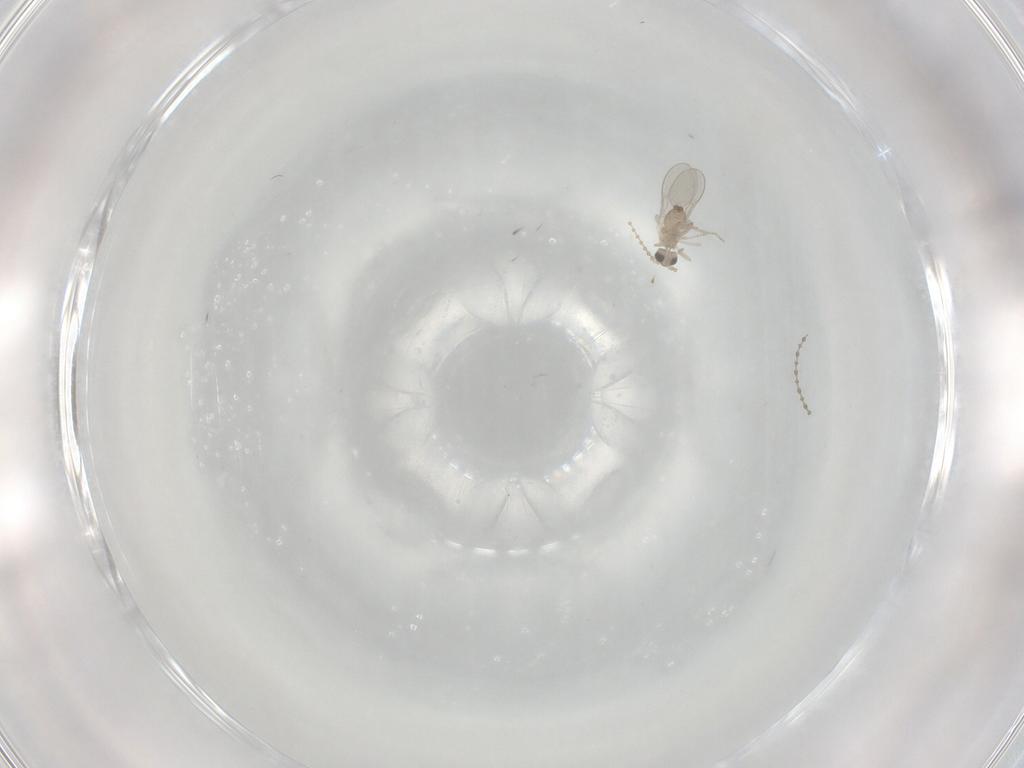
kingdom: Animalia
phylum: Arthropoda
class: Insecta
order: Diptera
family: Cecidomyiidae
